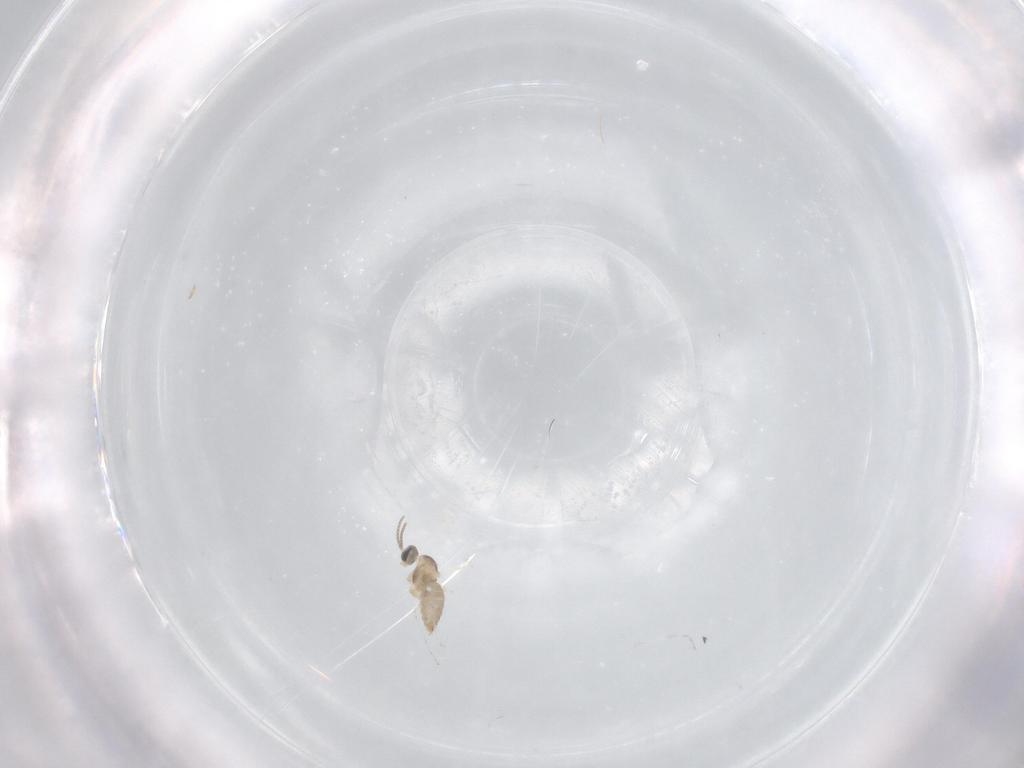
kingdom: Animalia
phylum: Arthropoda
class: Insecta
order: Diptera
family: Cecidomyiidae
